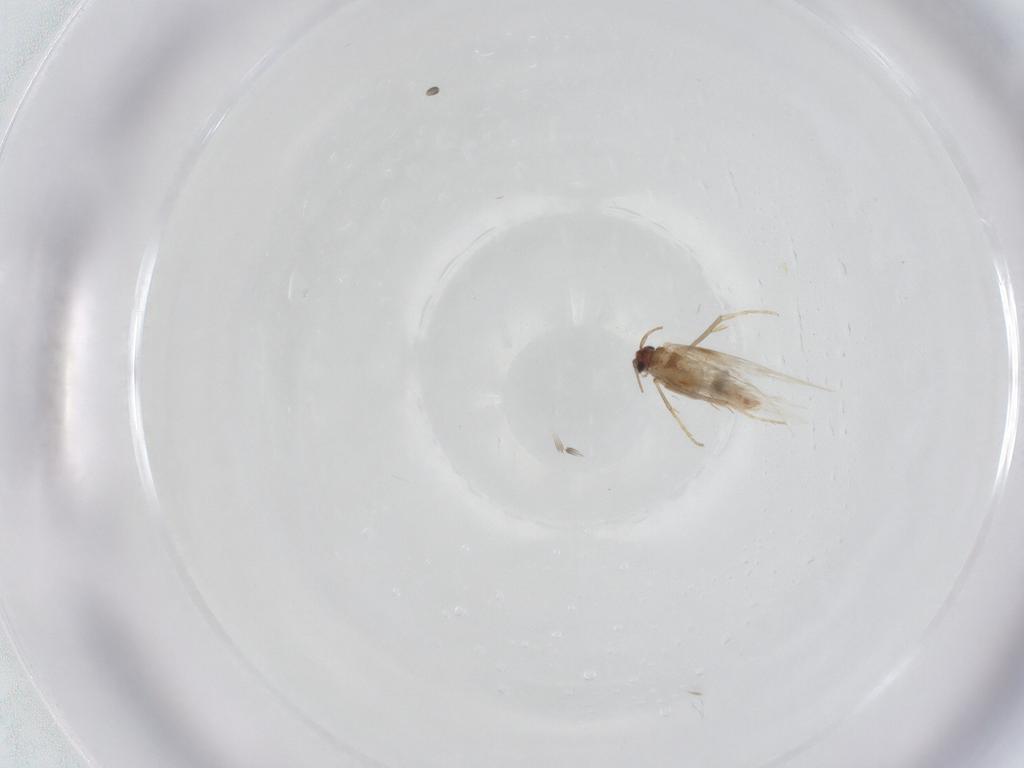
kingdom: Animalia
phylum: Arthropoda
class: Insecta
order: Lepidoptera
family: Nepticulidae
